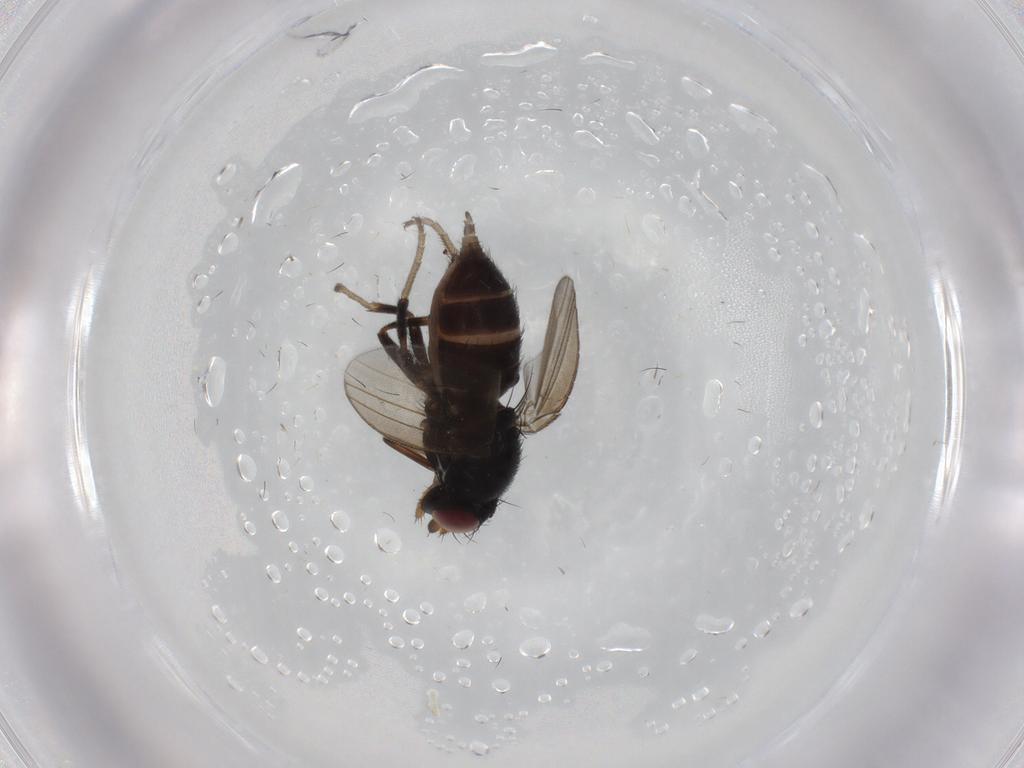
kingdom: Animalia
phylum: Arthropoda
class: Insecta
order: Diptera
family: Milichiidae
